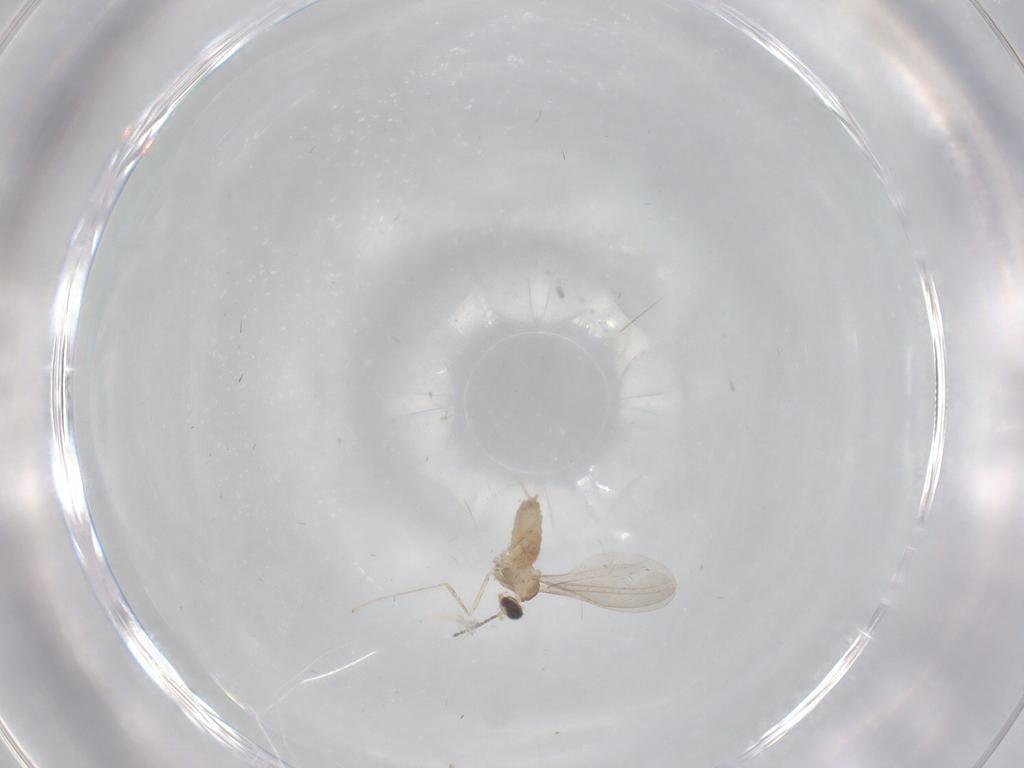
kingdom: Animalia
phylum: Arthropoda
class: Insecta
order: Diptera
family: Cecidomyiidae
